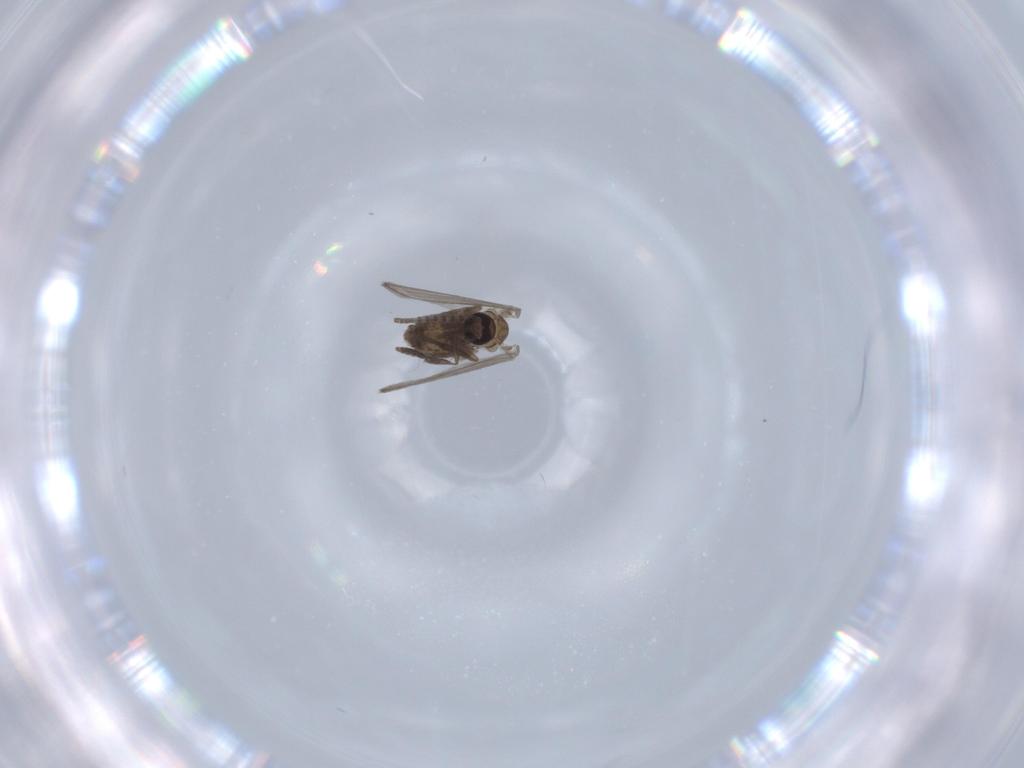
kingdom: Animalia
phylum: Arthropoda
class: Insecta
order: Diptera
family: Psychodidae
